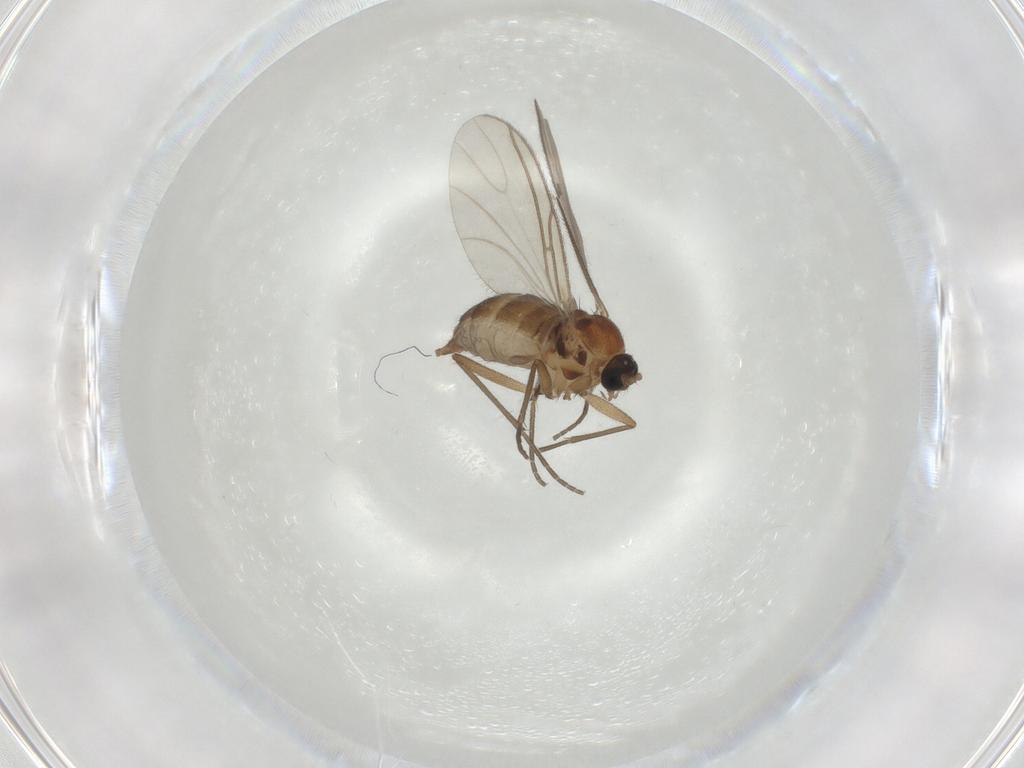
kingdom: Animalia
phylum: Arthropoda
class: Insecta
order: Diptera
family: Sciaridae
